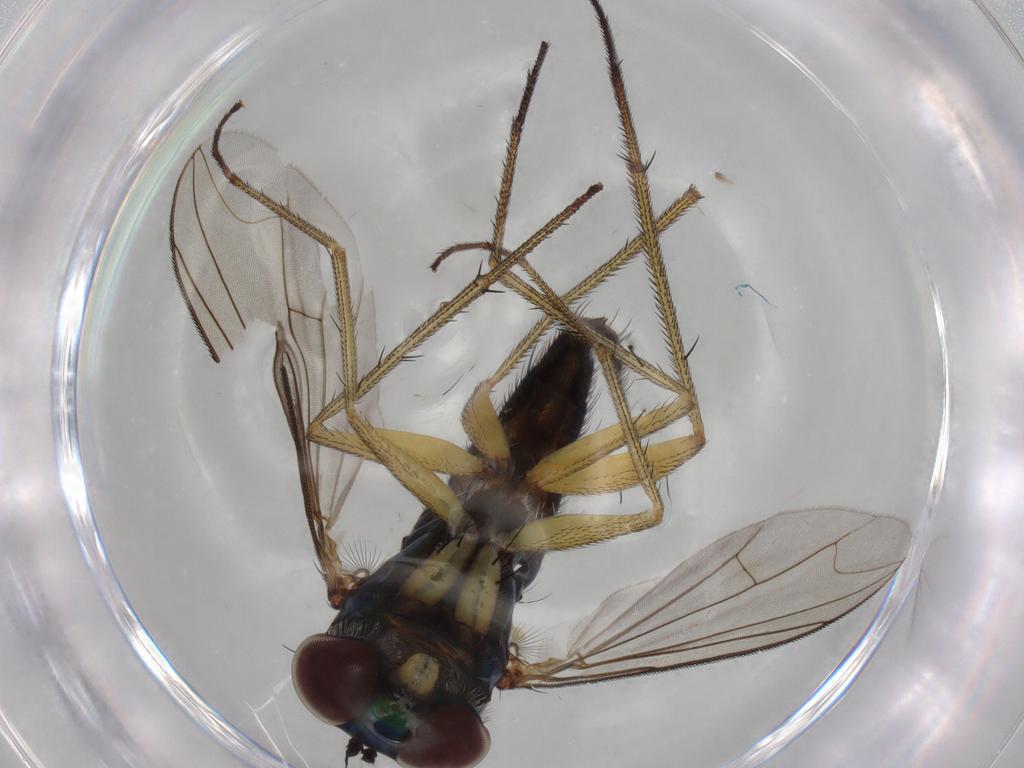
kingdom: Animalia
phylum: Arthropoda
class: Insecta
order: Diptera
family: Dolichopodidae
